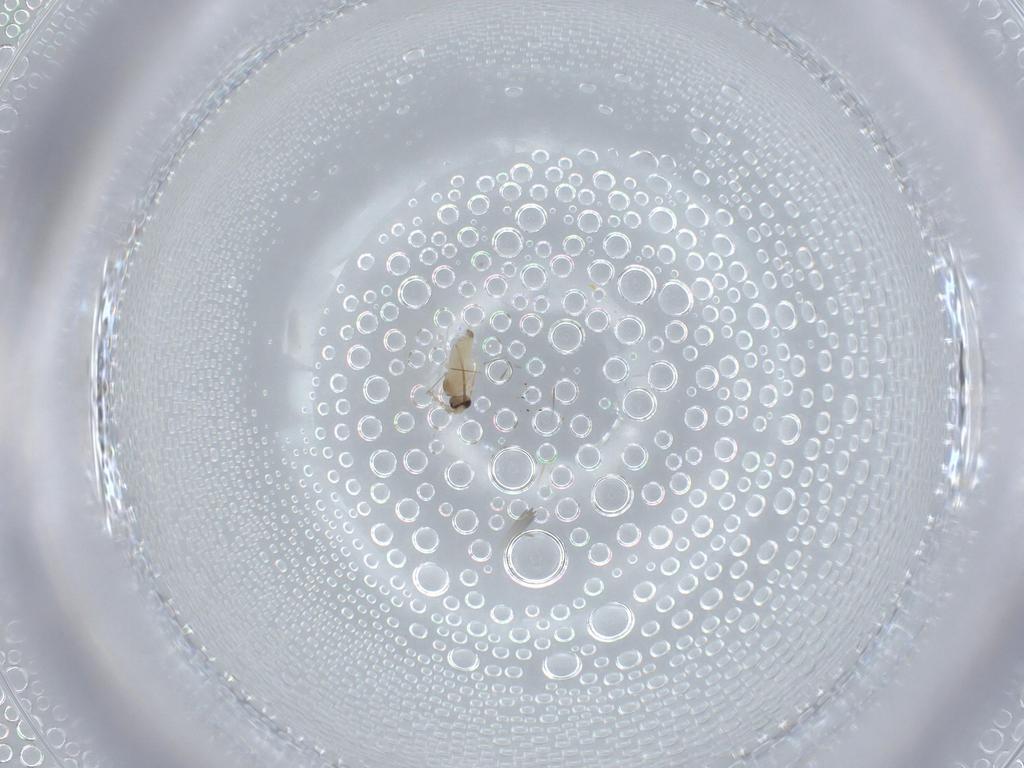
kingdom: Animalia
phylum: Arthropoda
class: Insecta
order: Diptera
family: Cecidomyiidae
